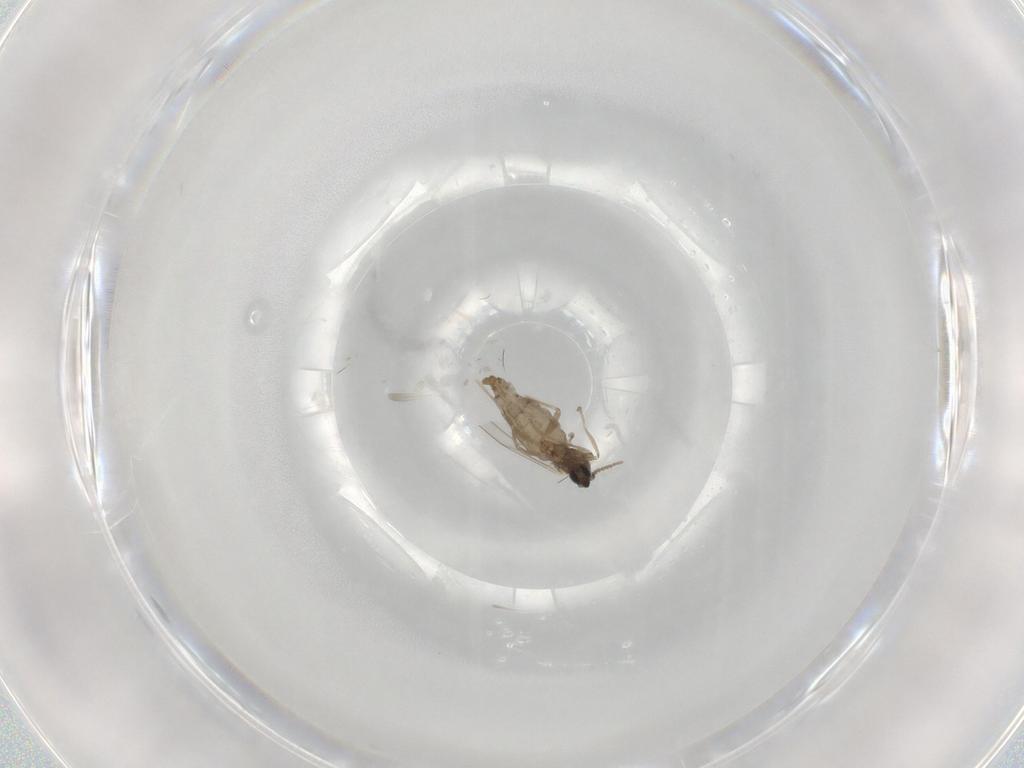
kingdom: Animalia
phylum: Arthropoda
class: Insecta
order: Diptera
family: Cecidomyiidae
